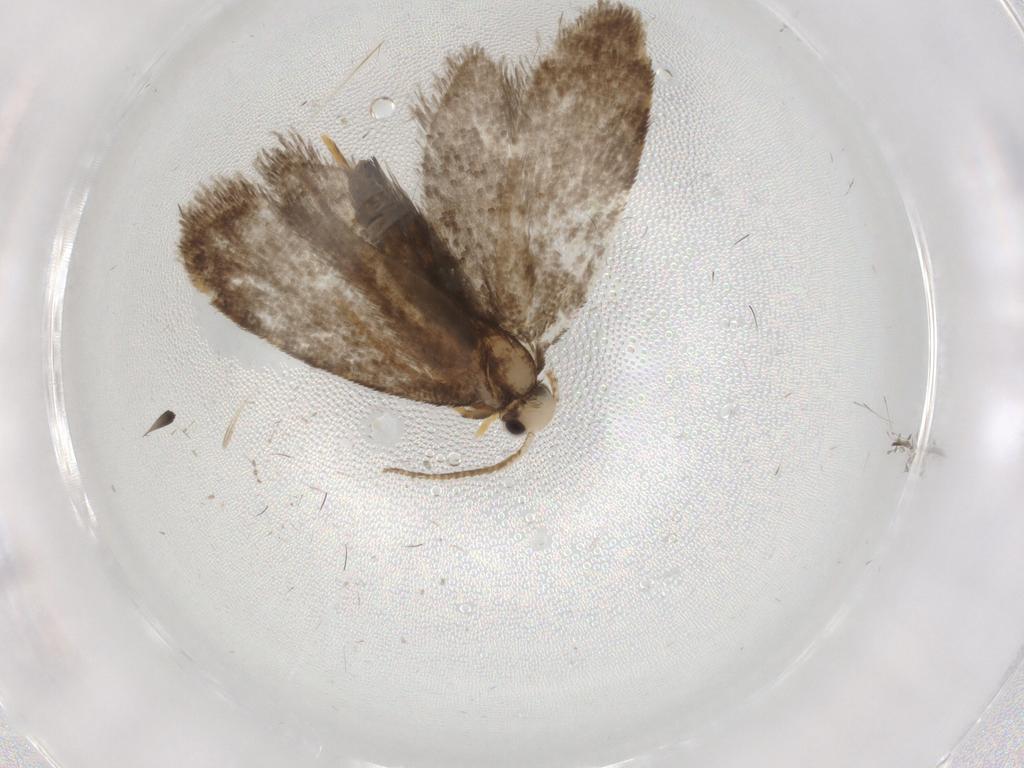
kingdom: Animalia
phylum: Arthropoda
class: Insecta
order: Lepidoptera
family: Psychidae
